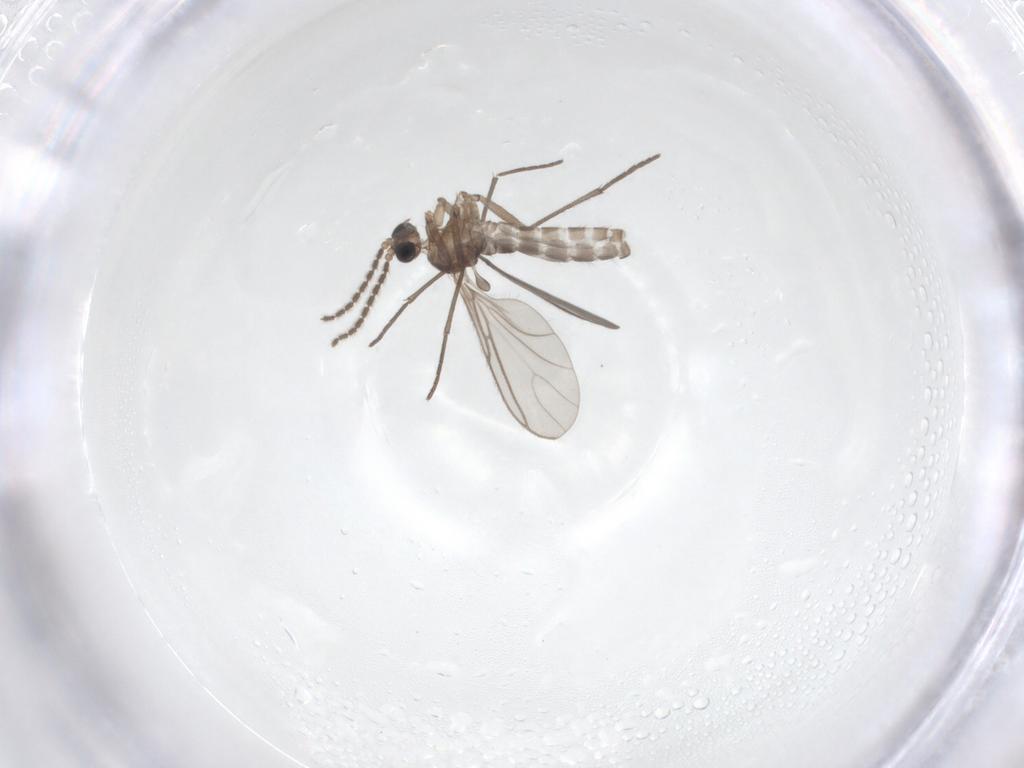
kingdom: Animalia
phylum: Arthropoda
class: Insecta
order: Diptera
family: Sciaridae
